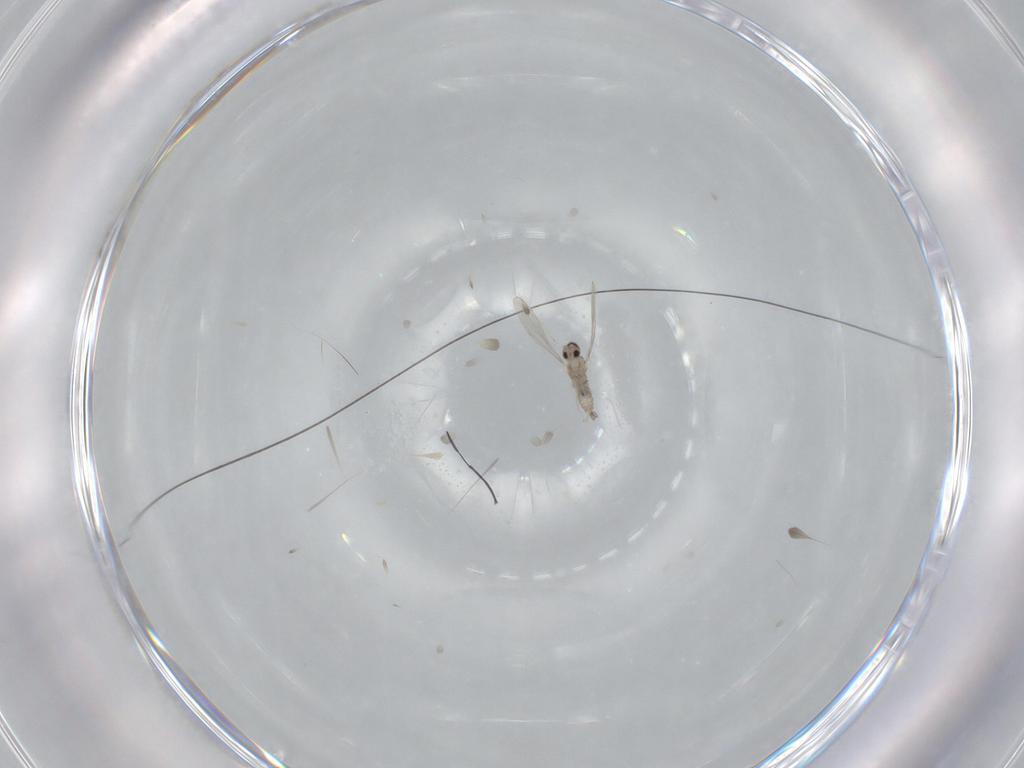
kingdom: Animalia
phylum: Arthropoda
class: Insecta
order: Diptera
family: Cecidomyiidae
